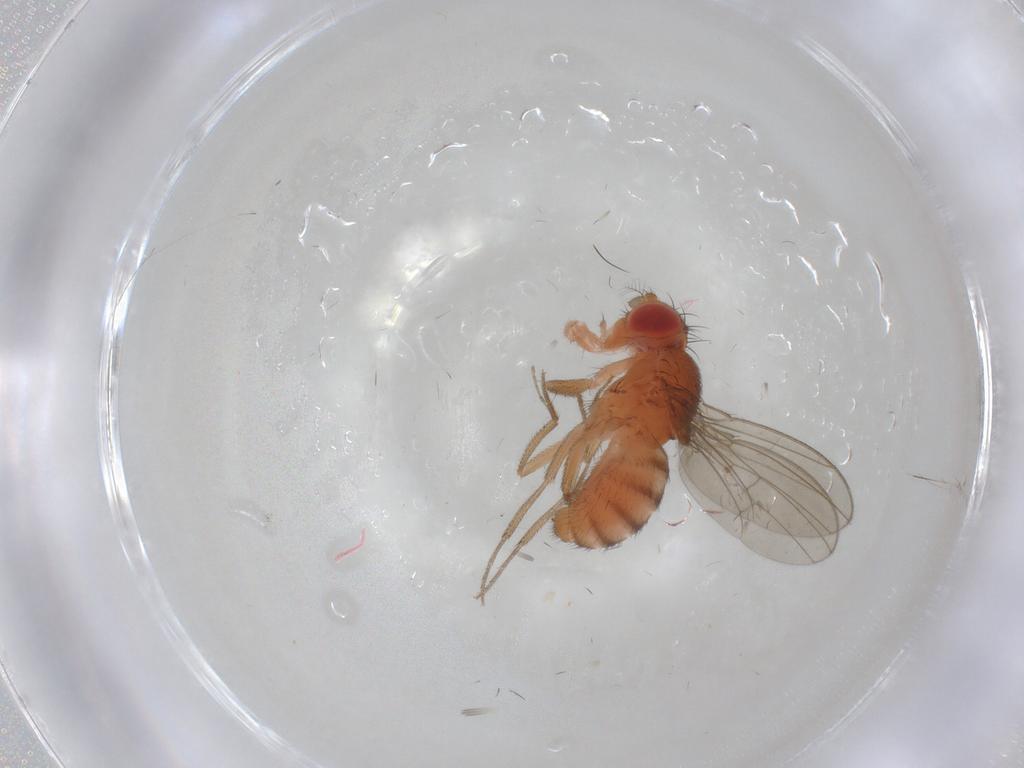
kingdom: Animalia
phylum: Arthropoda
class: Insecta
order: Diptera
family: Drosophilidae
